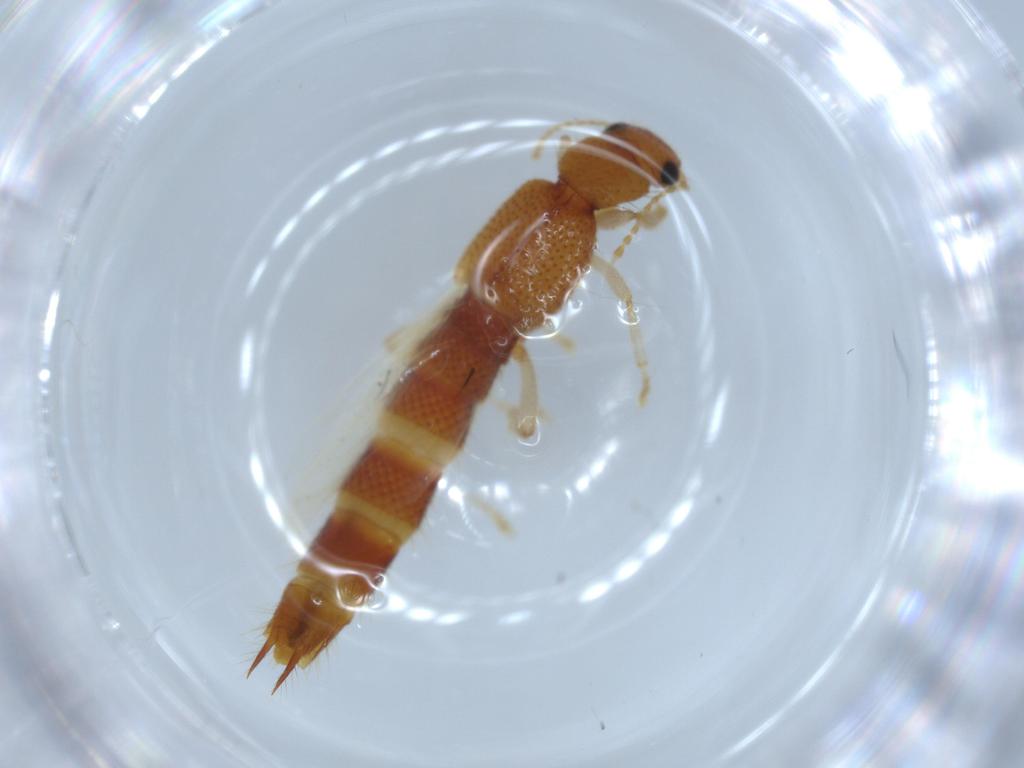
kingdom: Animalia
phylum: Arthropoda
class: Insecta
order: Coleoptera
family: Staphylinidae
